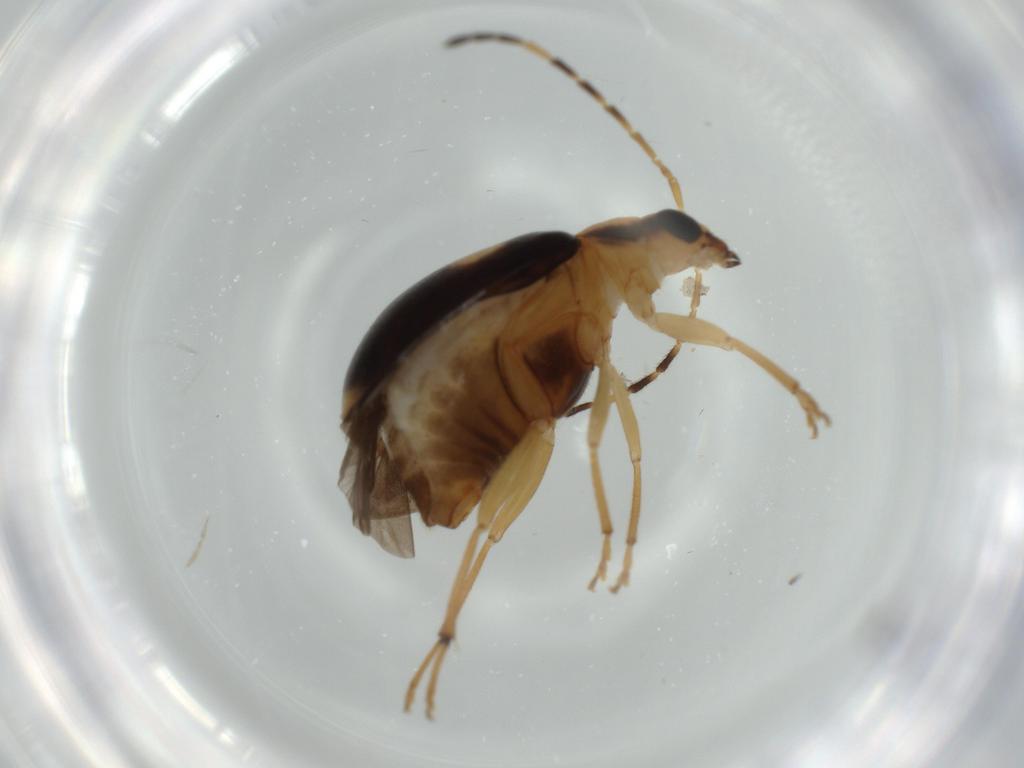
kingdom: Animalia
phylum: Arthropoda
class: Insecta
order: Coleoptera
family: Chrysomelidae
